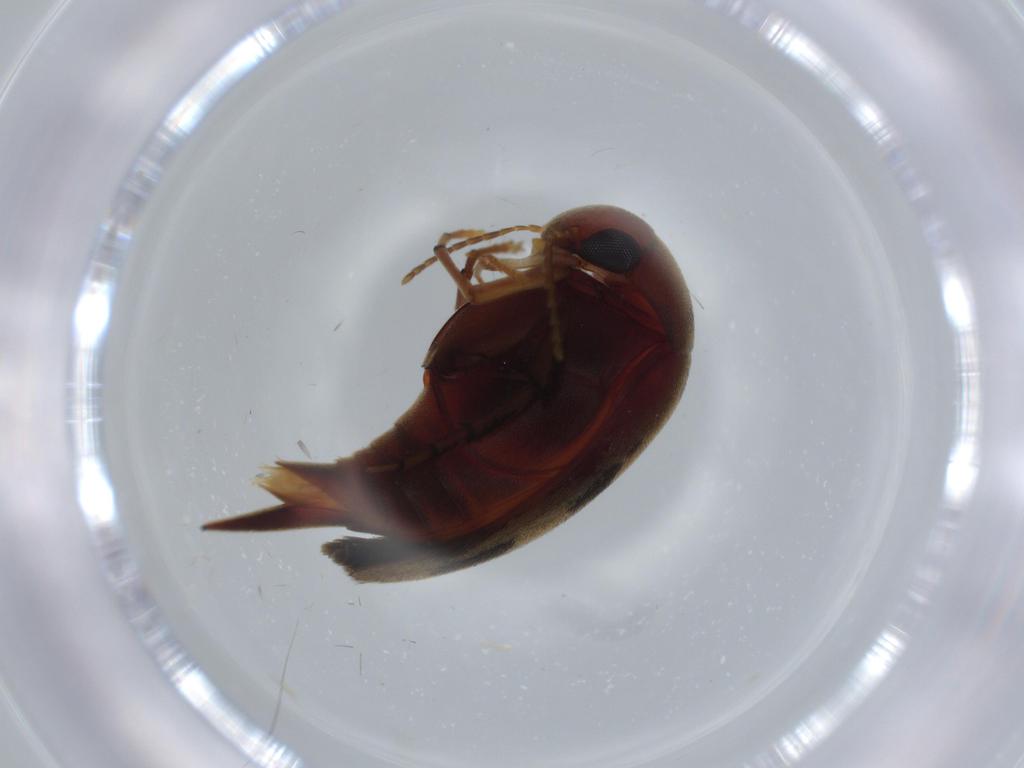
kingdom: Animalia
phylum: Arthropoda
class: Insecta
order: Coleoptera
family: Mordellidae
